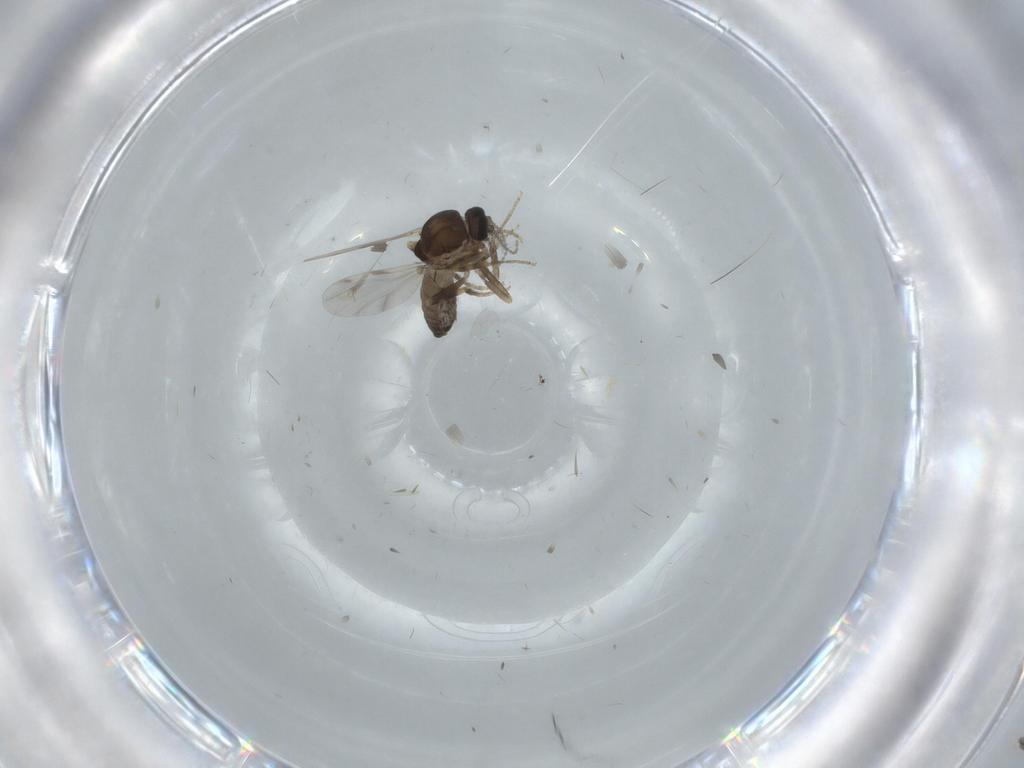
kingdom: Animalia
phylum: Arthropoda
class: Insecta
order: Diptera
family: Ceratopogonidae
